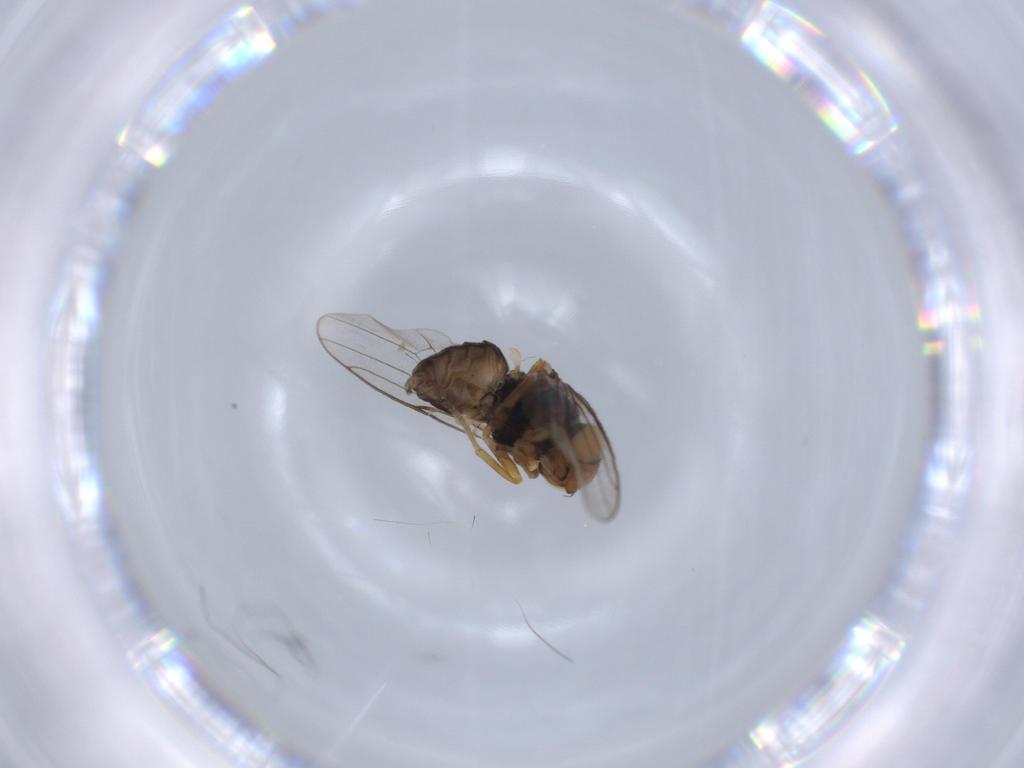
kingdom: Animalia
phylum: Arthropoda
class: Insecta
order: Diptera
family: Chloropidae
